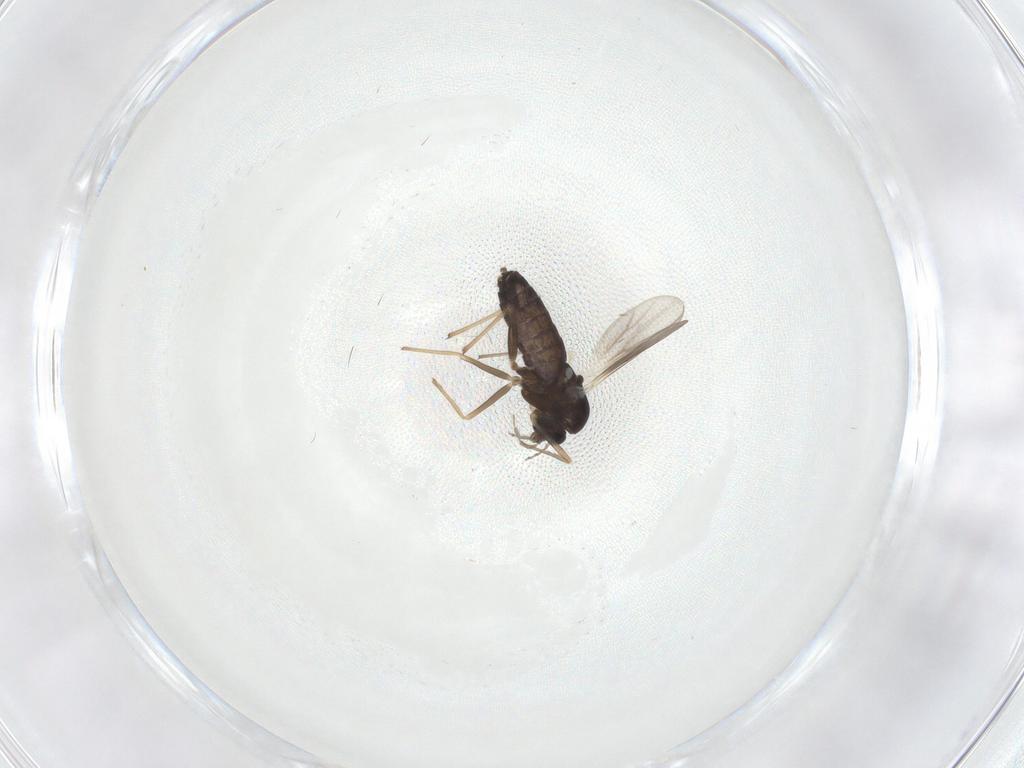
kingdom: Animalia
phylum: Arthropoda
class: Insecta
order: Diptera
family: Chironomidae
